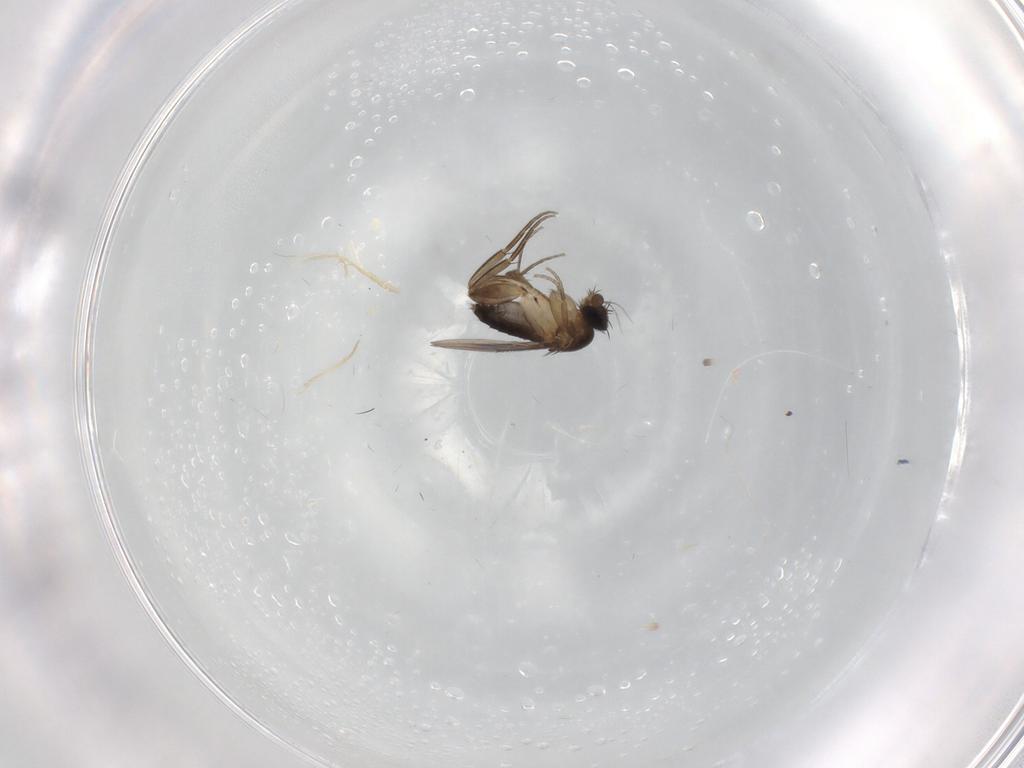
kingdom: Animalia
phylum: Arthropoda
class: Insecta
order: Diptera
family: Phoridae
